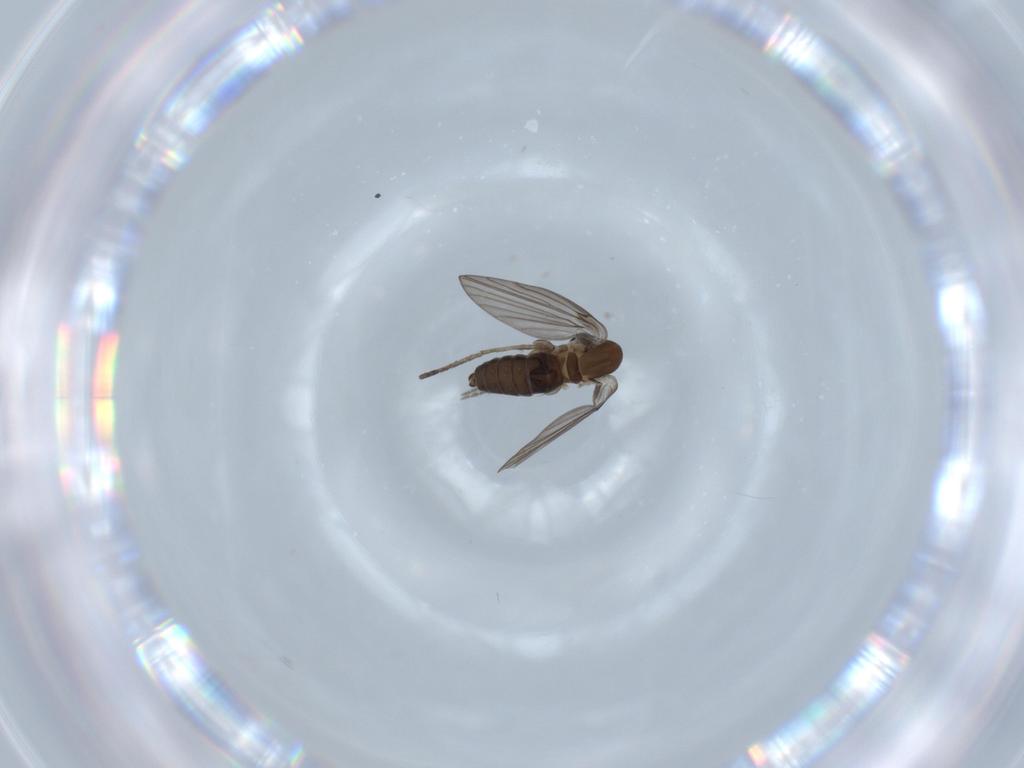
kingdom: Animalia
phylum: Arthropoda
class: Insecta
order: Diptera
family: Psychodidae
